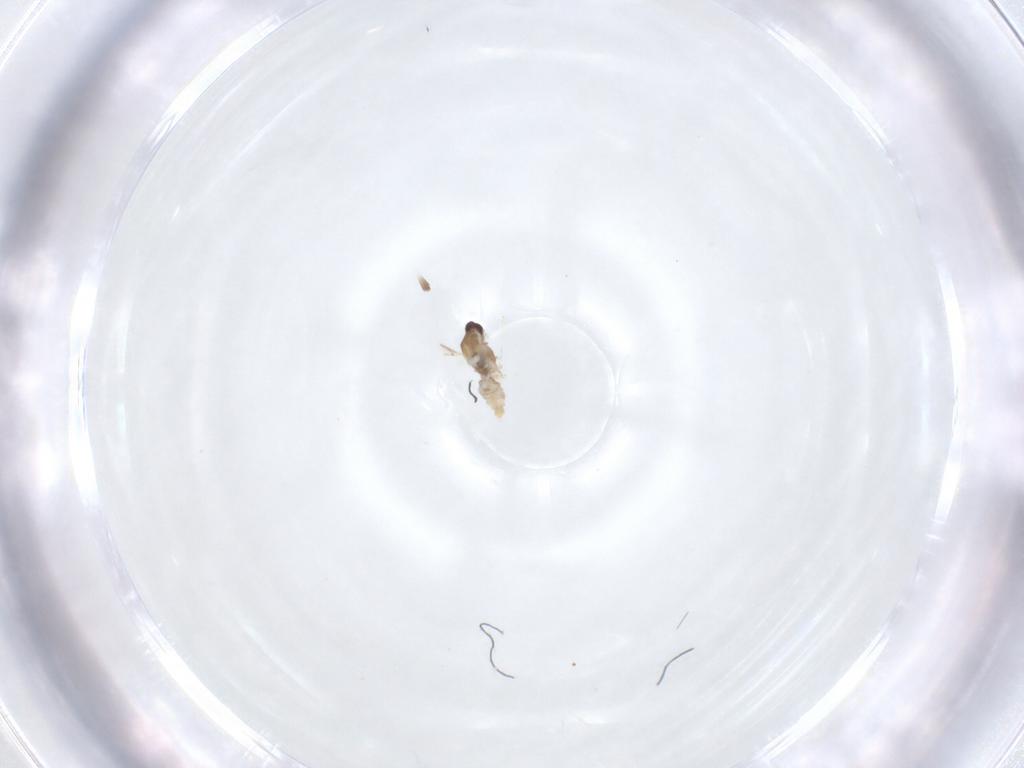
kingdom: Animalia
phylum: Arthropoda
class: Insecta
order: Diptera
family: Cecidomyiidae
